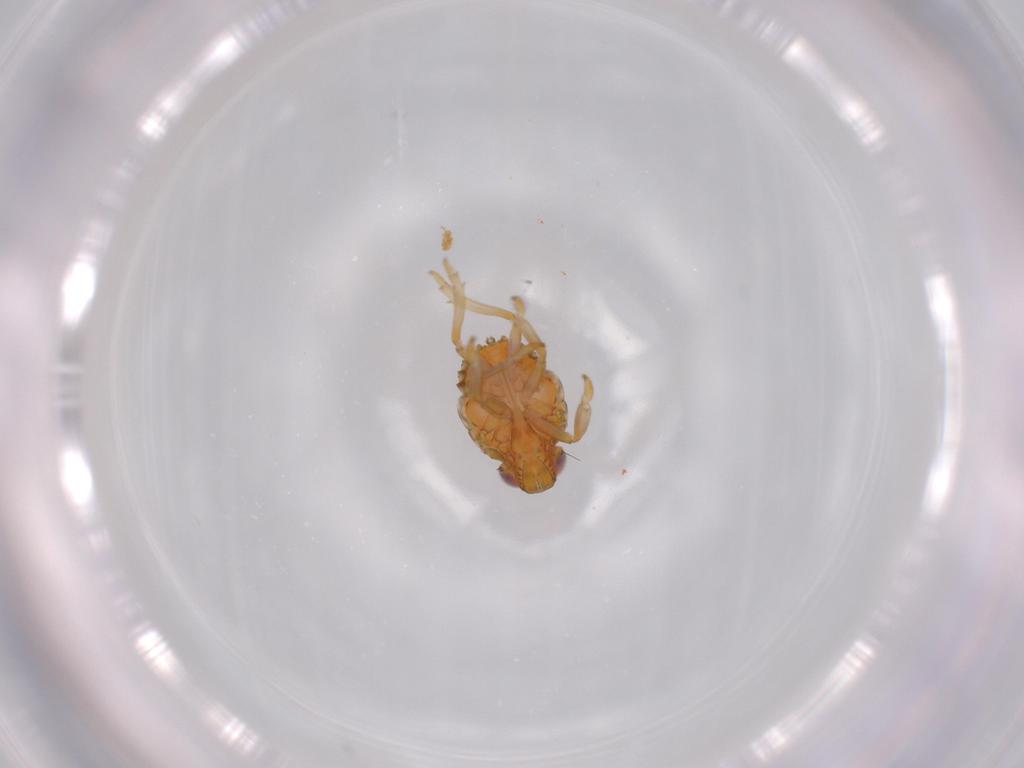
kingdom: Animalia
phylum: Arthropoda
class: Insecta
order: Hemiptera
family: Issidae
